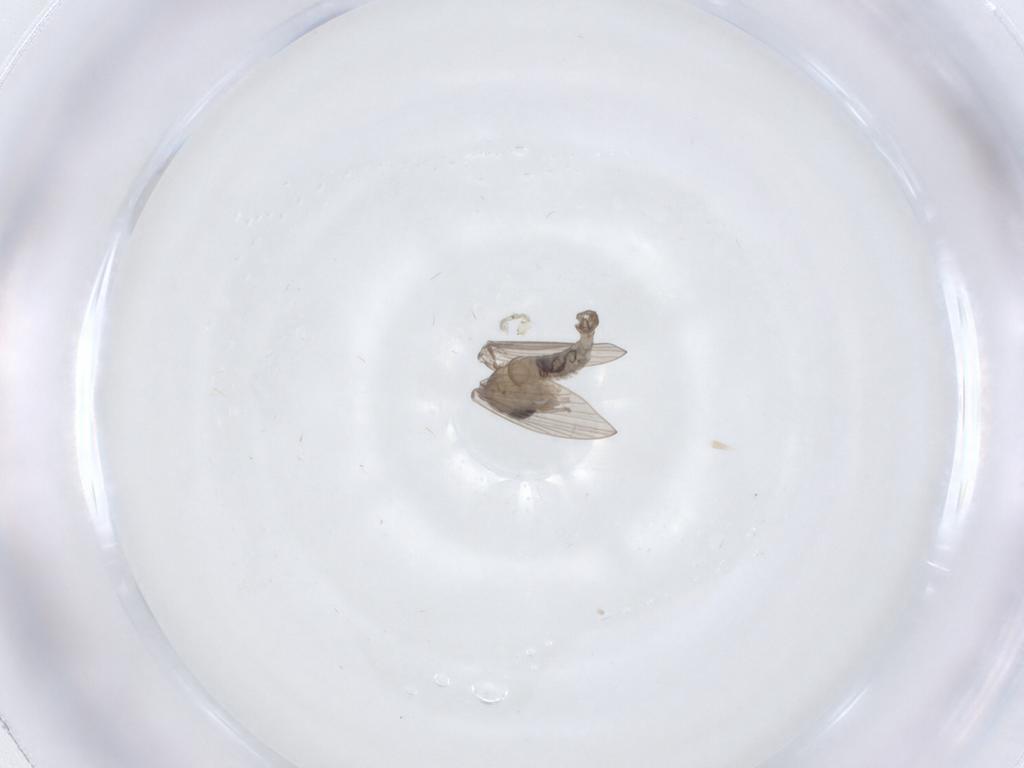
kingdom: Animalia
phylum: Arthropoda
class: Insecta
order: Diptera
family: Psychodidae
